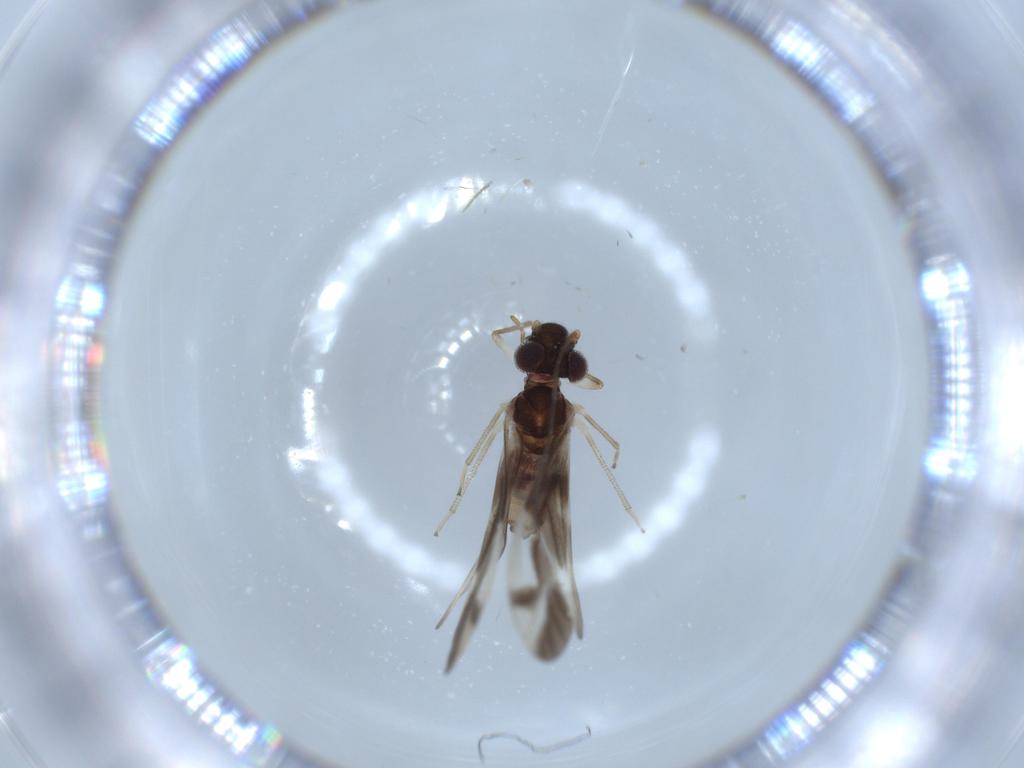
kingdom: Animalia
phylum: Arthropoda
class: Insecta
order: Psocodea
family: Caeciliusidae
